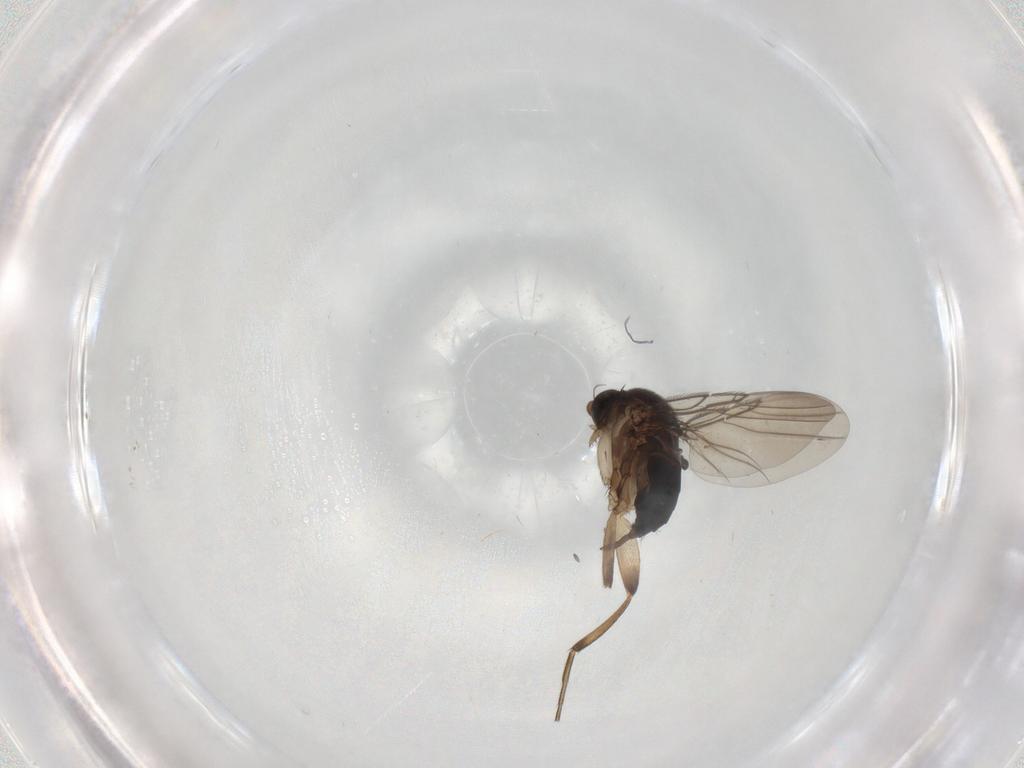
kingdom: Animalia
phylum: Arthropoda
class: Insecta
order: Diptera
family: Phoridae
